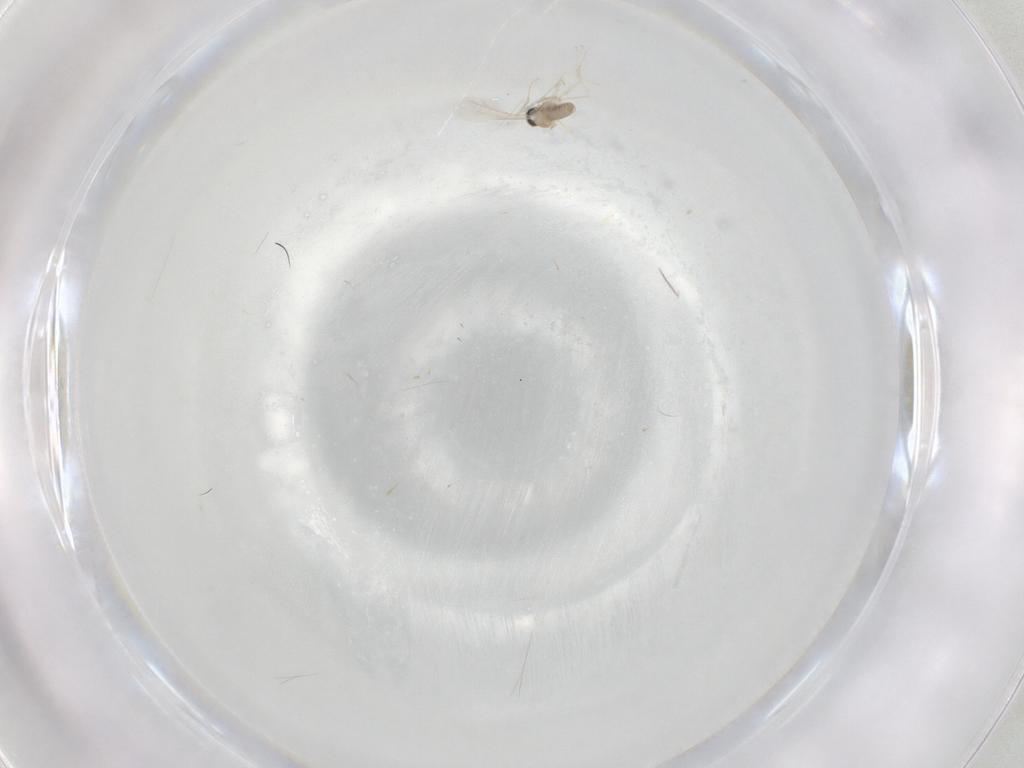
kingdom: Animalia
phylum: Arthropoda
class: Insecta
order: Diptera
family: Cecidomyiidae
